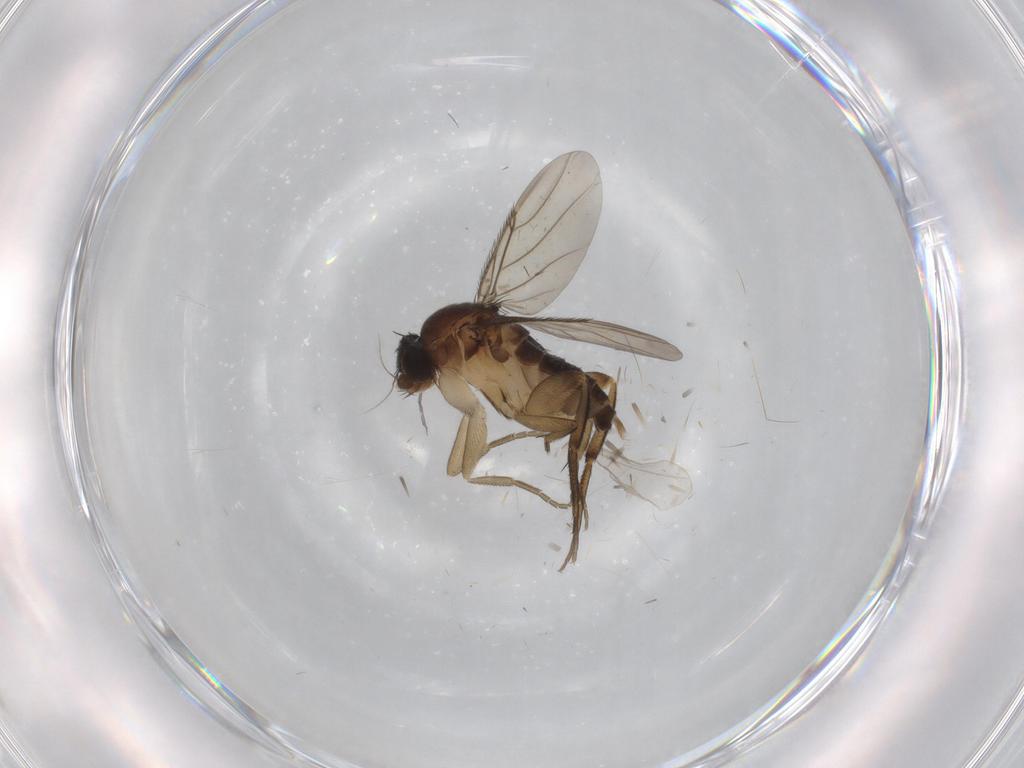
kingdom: Animalia
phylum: Arthropoda
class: Insecta
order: Diptera
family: Phoridae
